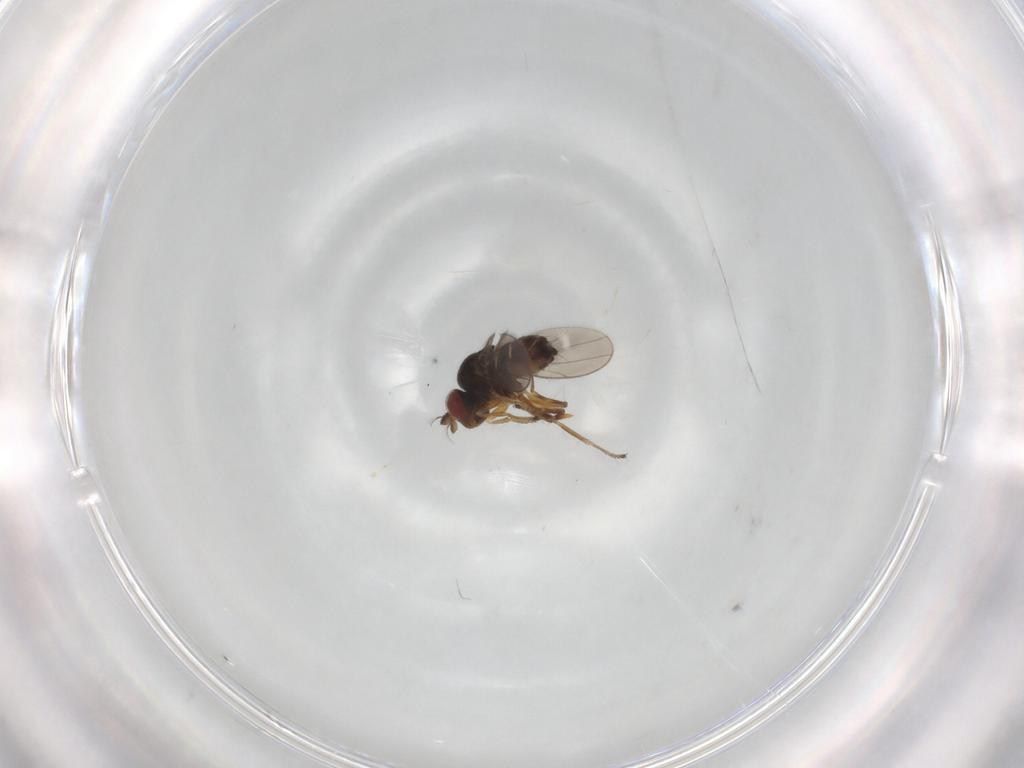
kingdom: Animalia
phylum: Arthropoda
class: Insecta
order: Diptera
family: Ephydridae
